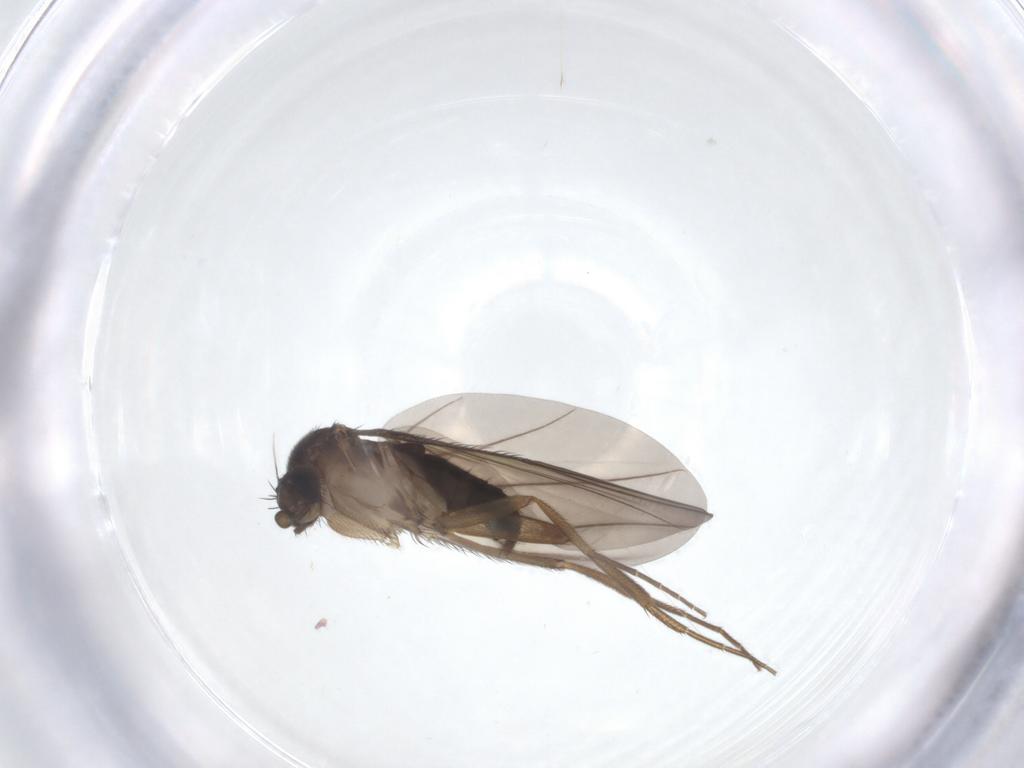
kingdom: Animalia
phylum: Arthropoda
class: Insecta
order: Diptera
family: Phoridae
